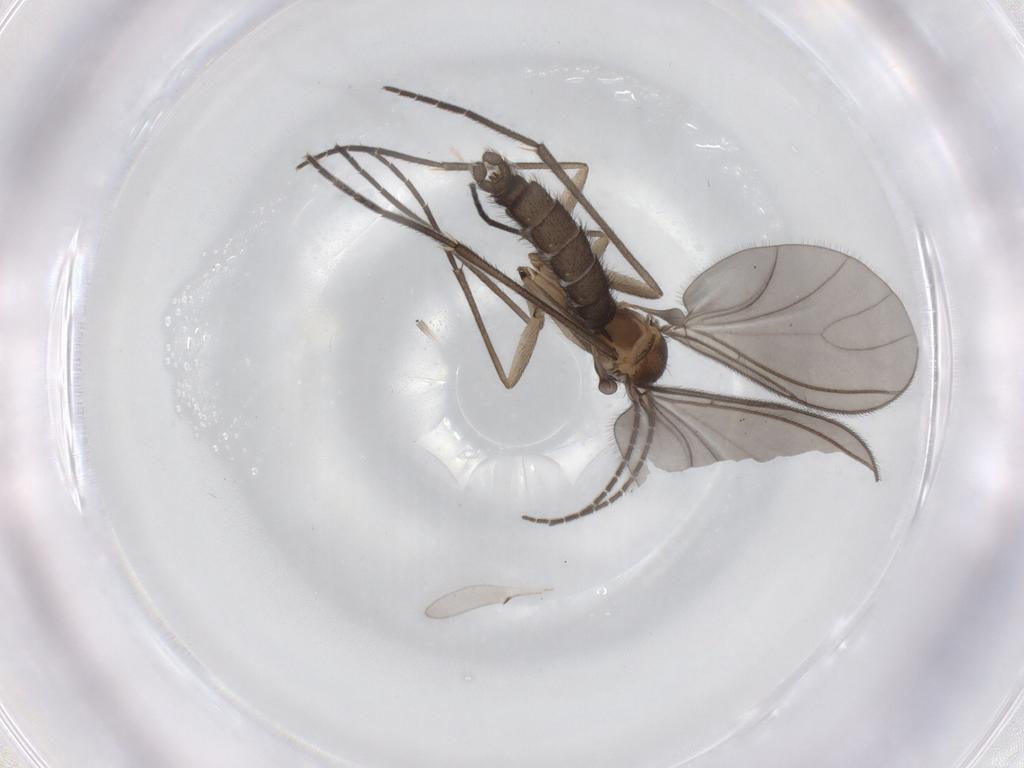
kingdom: Animalia
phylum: Arthropoda
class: Insecta
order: Diptera
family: Sciaridae
